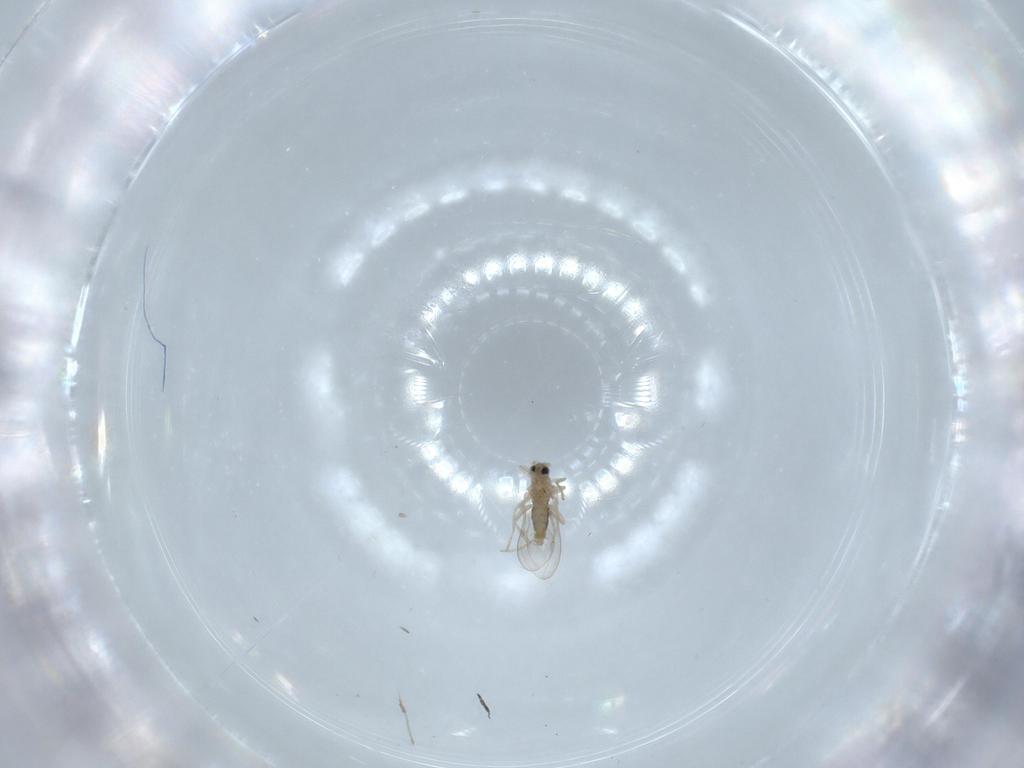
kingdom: Animalia
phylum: Arthropoda
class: Insecta
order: Diptera
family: Cecidomyiidae
